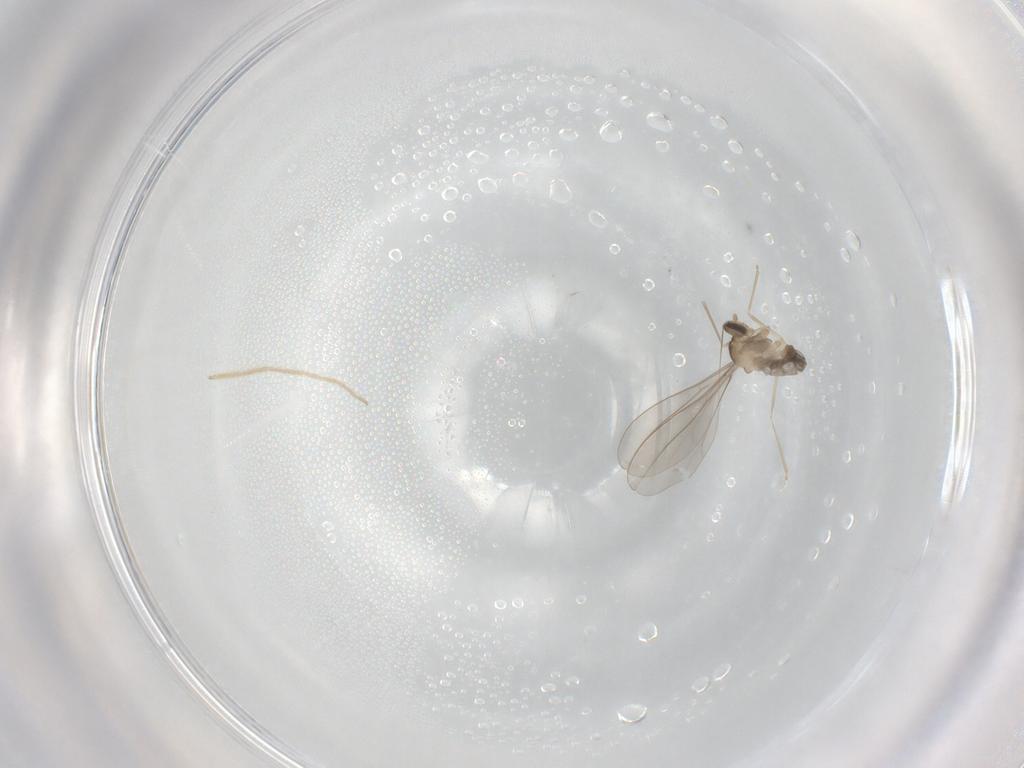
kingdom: Animalia
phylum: Arthropoda
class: Insecta
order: Diptera
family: Cecidomyiidae
